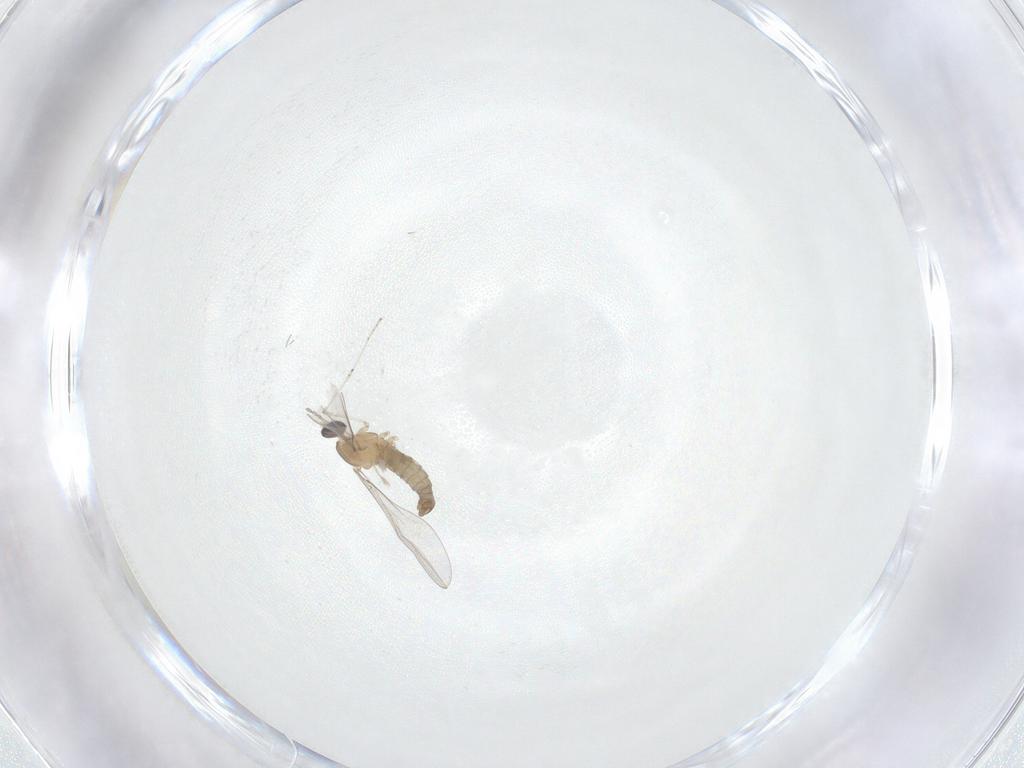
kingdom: Animalia
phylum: Arthropoda
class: Insecta
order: Diptera
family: Cecidomyiidae
